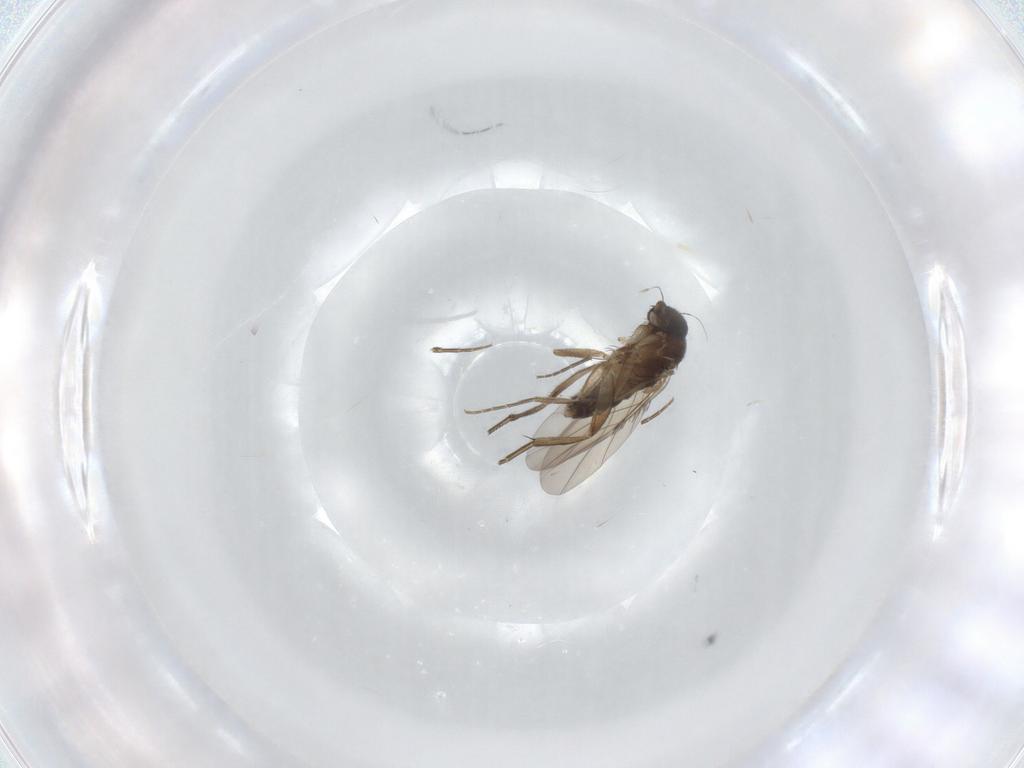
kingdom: Animalia
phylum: Arthropoda
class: Insecta
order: Diptera
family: Phoridae
